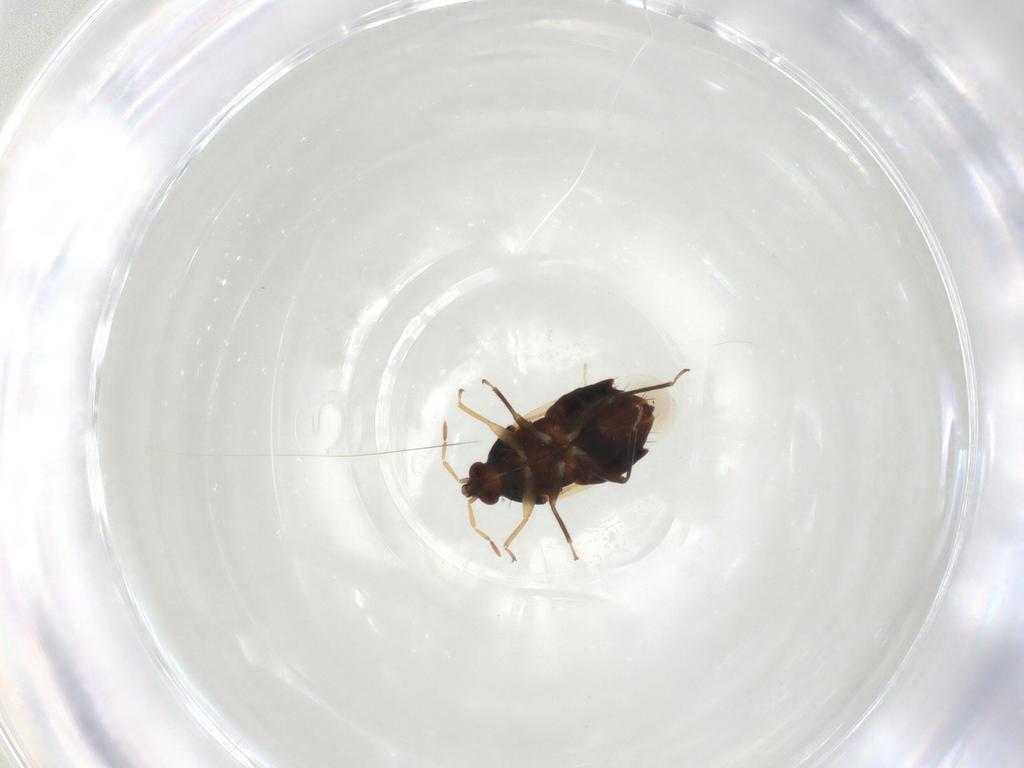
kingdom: Animalia
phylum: Arthropoda
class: Insecta
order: Hemiptera
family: Anthocoridae
